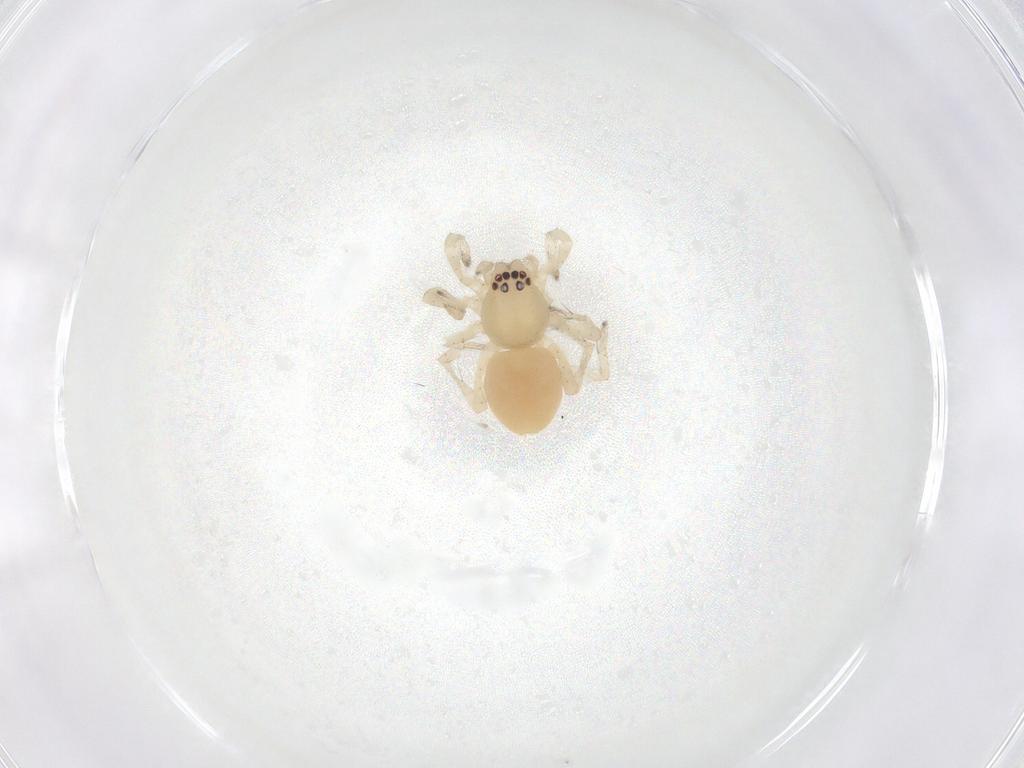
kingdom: Animalia
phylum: Arthropoda
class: Arachnida
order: Araneae
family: Clubionidae
